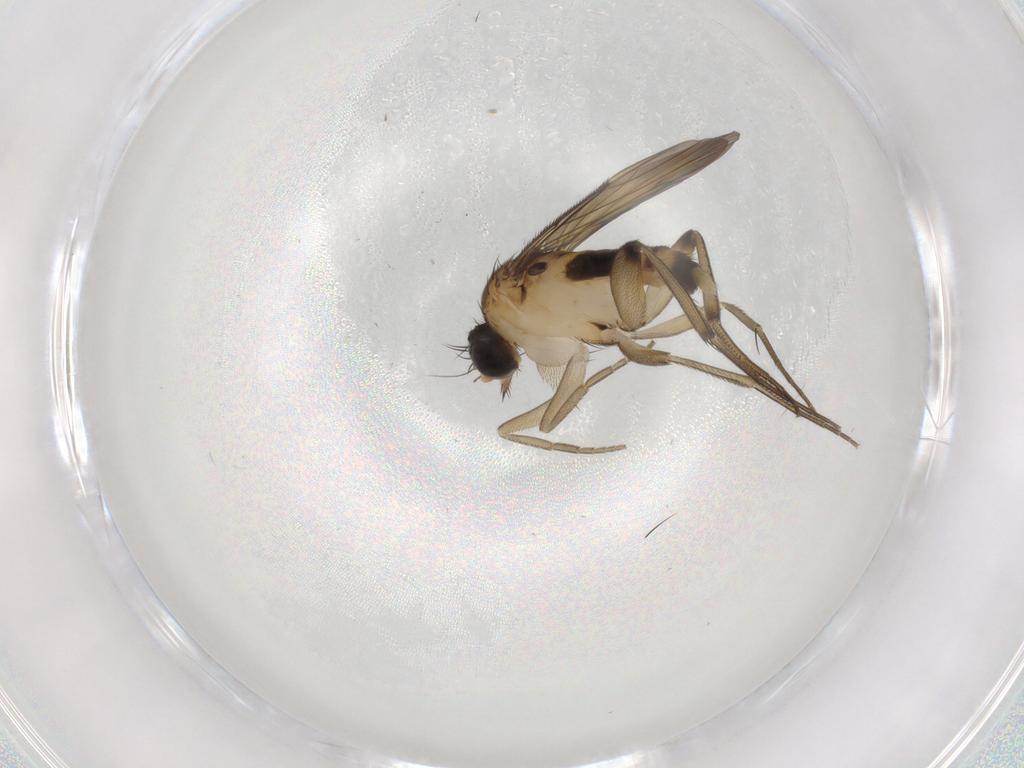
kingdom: Animalia
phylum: Arthropoda
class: Insecta
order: Diptera
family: Phoridae
